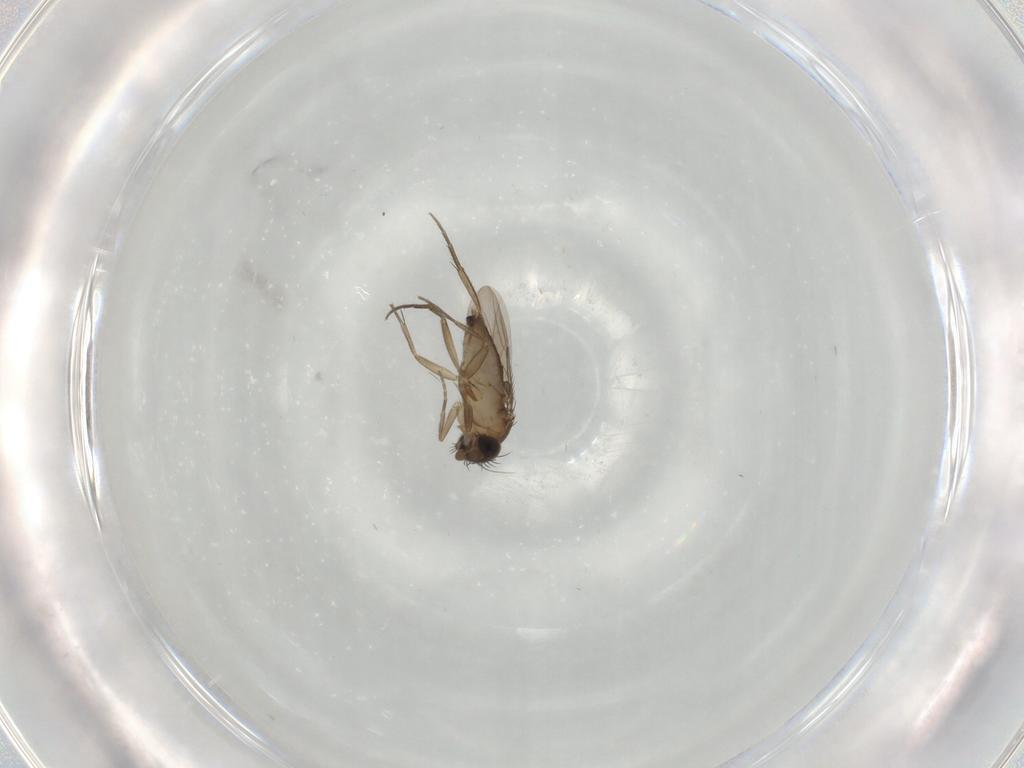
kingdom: Animalia
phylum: Arthropoda
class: Insecta
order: Diptera
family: Phoridae
